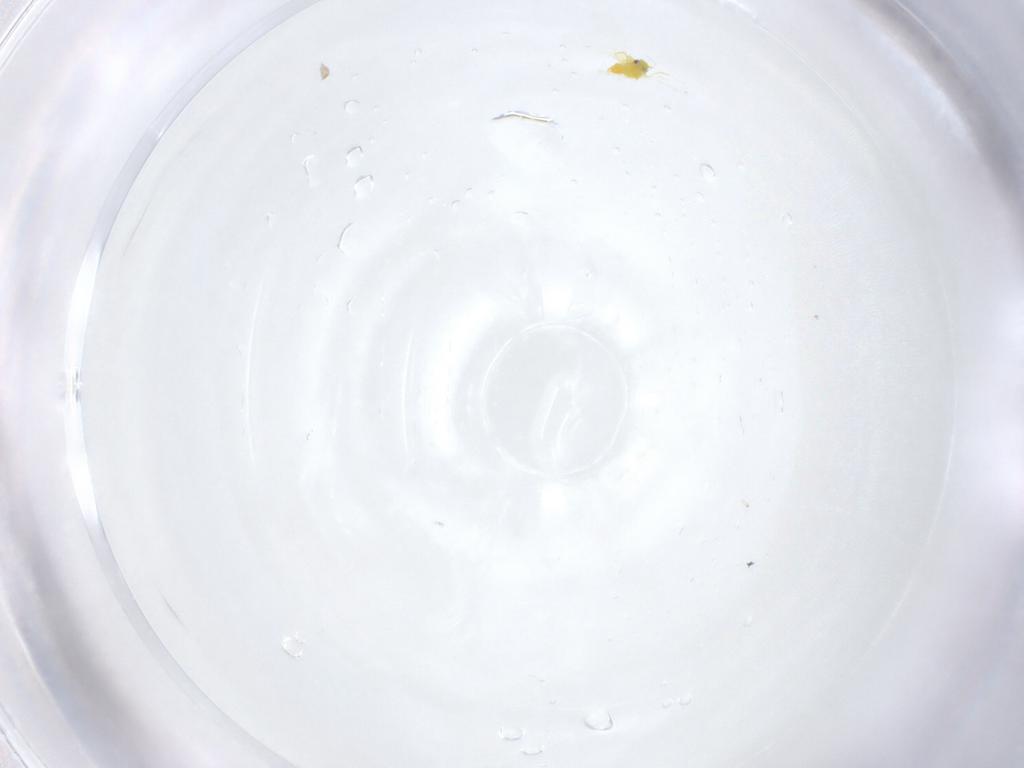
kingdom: Animalia
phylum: Arthropoda
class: Insecta
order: Hemiptera
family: Aleyrodidae
